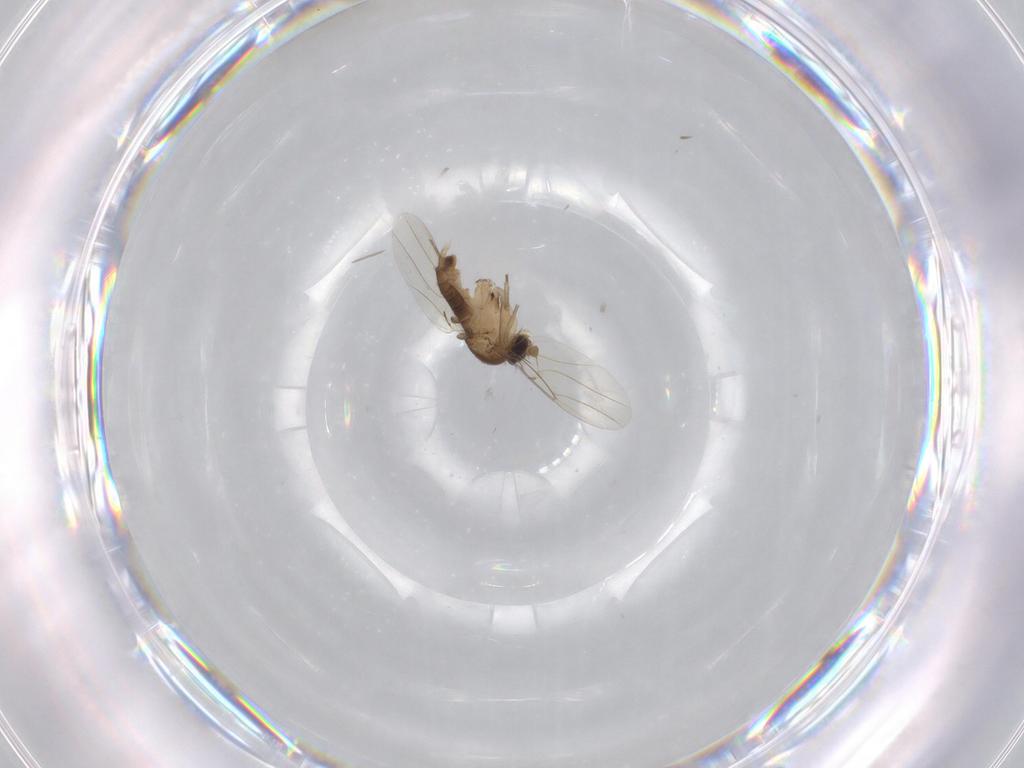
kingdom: Animalia
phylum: Arthropoda
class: Insecta
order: Diptera
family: Phoridae
